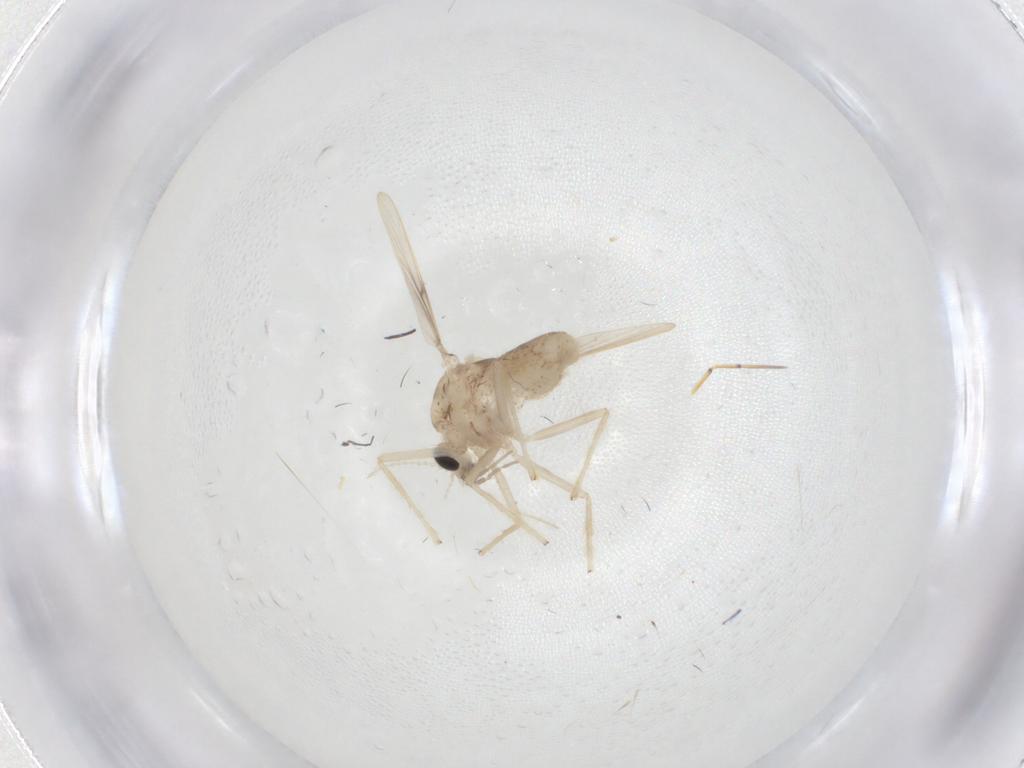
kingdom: Animalia
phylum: Arthropoda
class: Insecta
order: Diptera
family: Chironomidae
